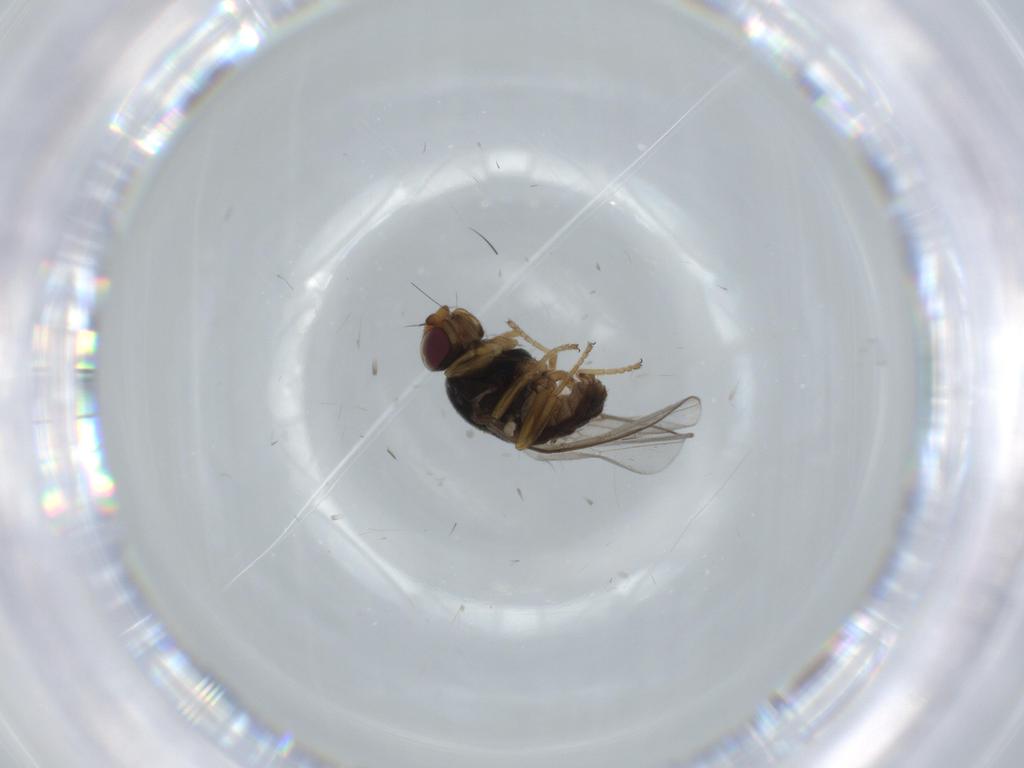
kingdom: Animalia
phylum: Arthropoda
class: Insecta
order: Diptera
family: Chloropidae
